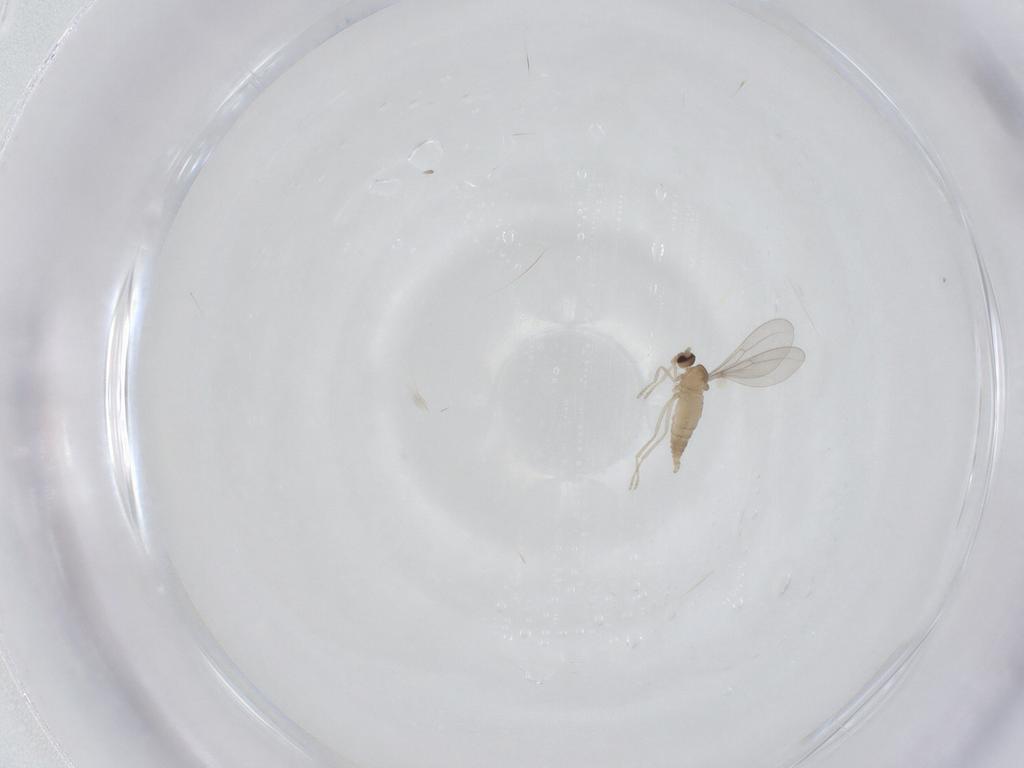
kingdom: Animalia
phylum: Arthropoda
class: Insecta
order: Diptera
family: Cecidomyiidae
